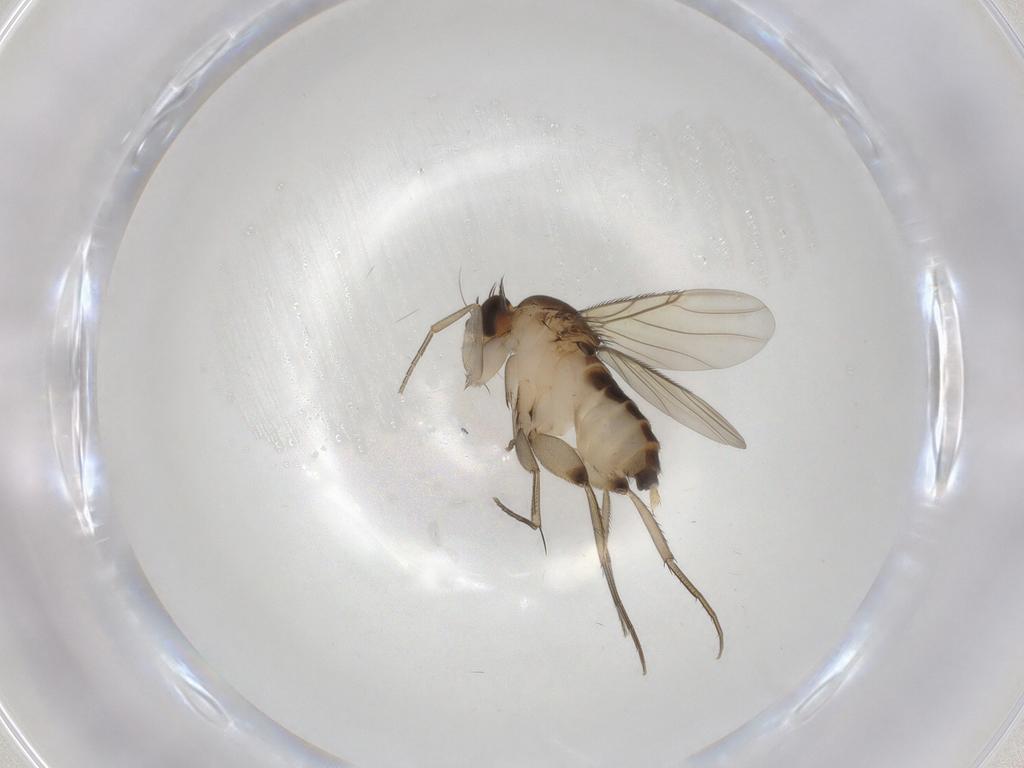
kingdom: Animalia
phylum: Arthropoda
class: Insecta
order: Diptera
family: Phoridae
